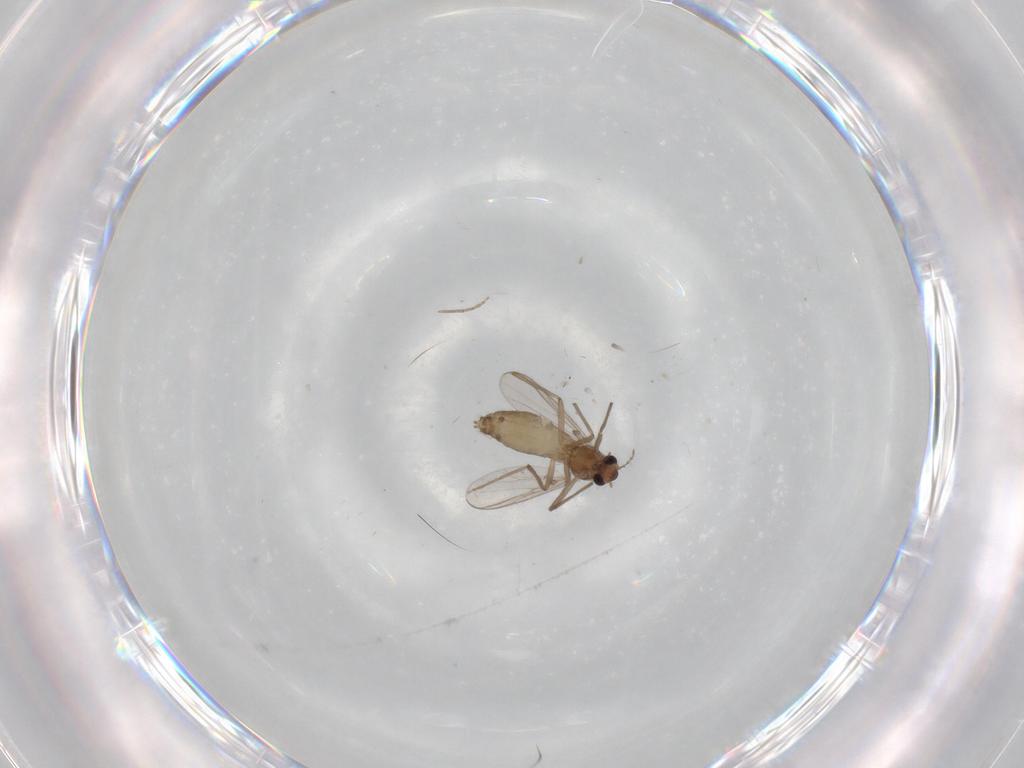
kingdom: Animalia
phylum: Arthropoda
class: Insecta
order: Diptera
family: Chironomidae
